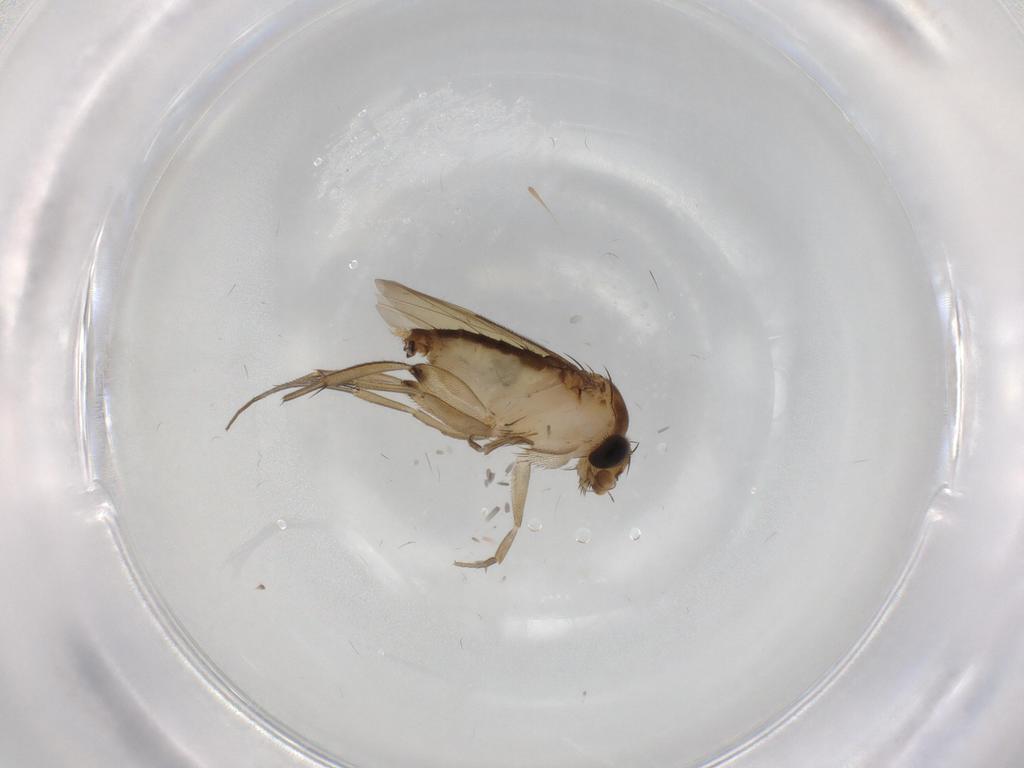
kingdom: Animalia
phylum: Arthropoda
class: Insecta
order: Diptera
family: Phoridae
